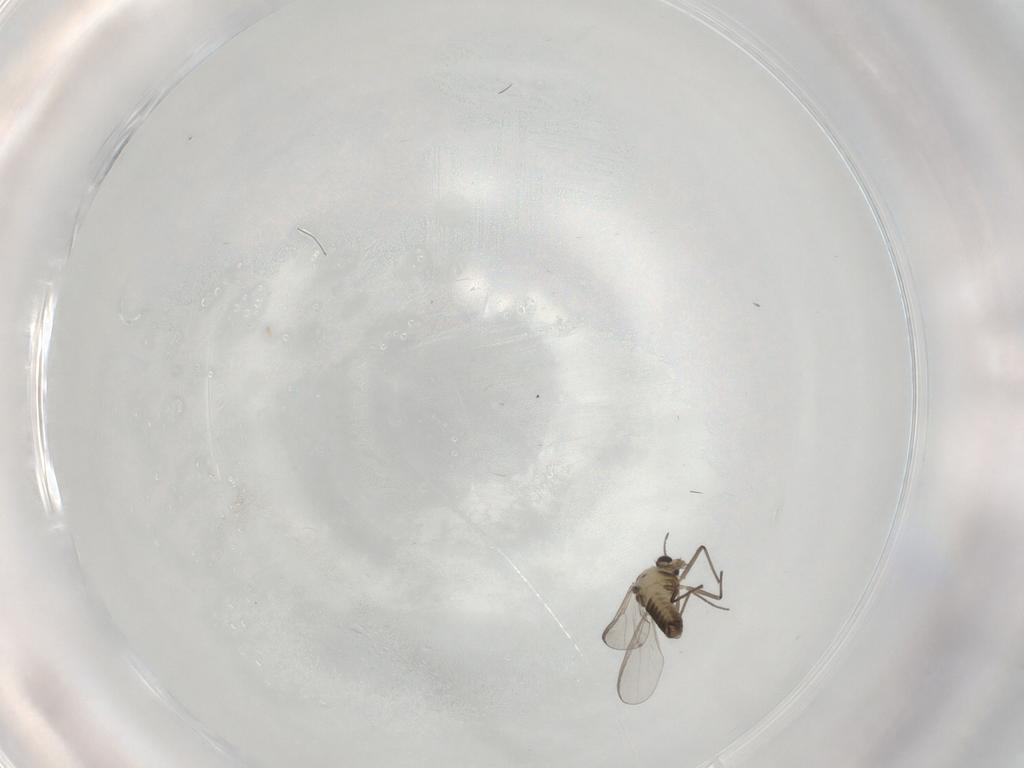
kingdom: Animalia
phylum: Arthropoda
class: Insecta
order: Diptera
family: Chironomidae
